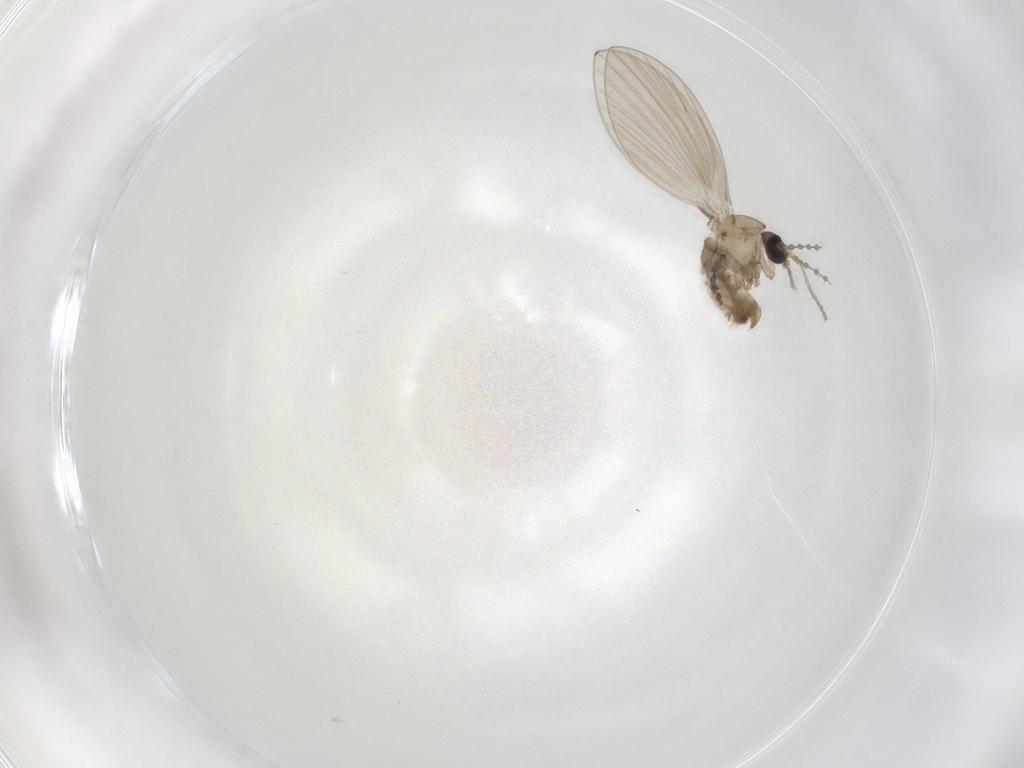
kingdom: Animalia
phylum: Arthropoda
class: Insecta
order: Diptera
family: Psychodidae
